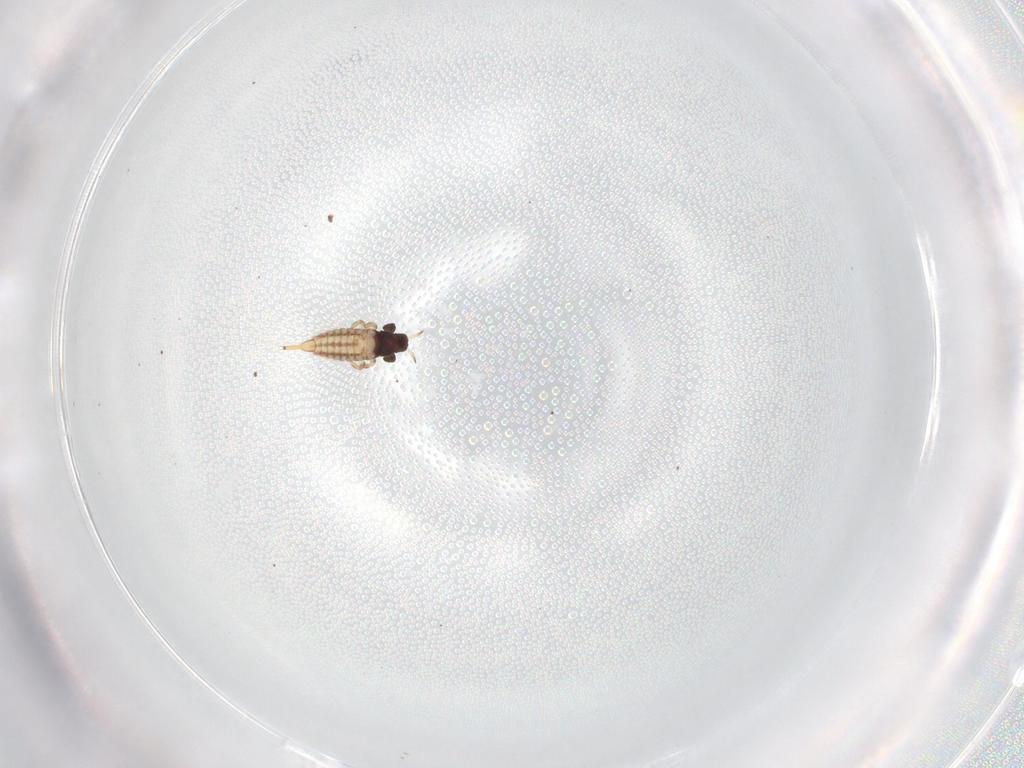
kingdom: Animalia
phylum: Arthropoda
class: Insecta
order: Thysanoptera
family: Phlaeothripidae
